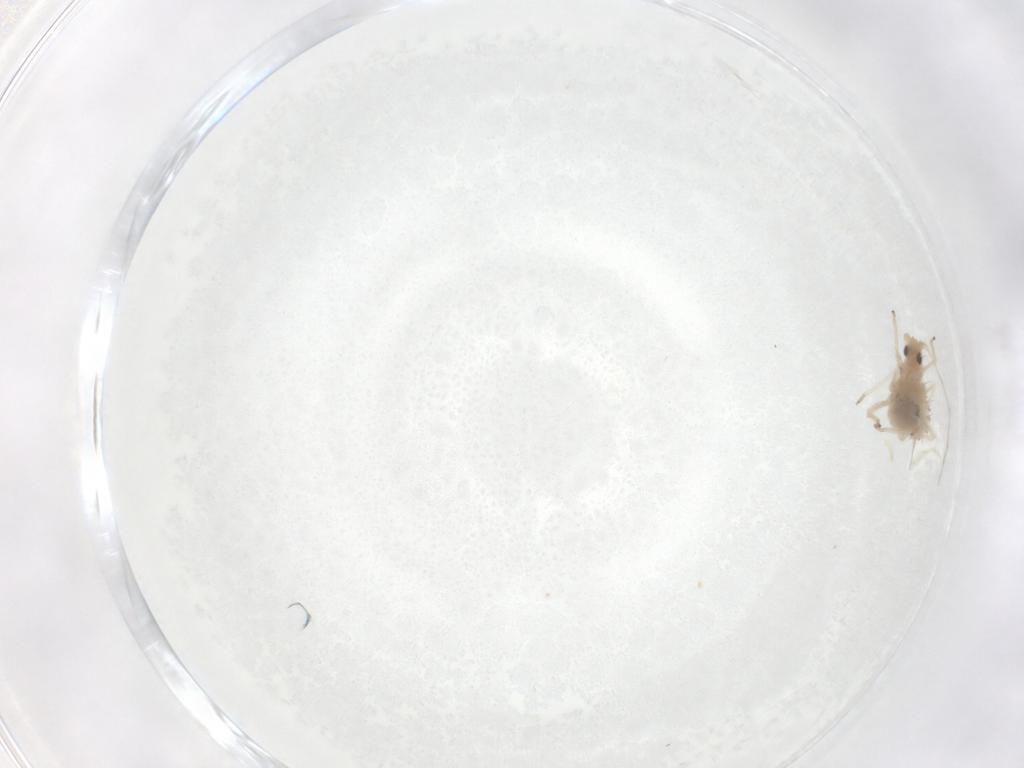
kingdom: Animalia
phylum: Arthropoda
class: Insecta
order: Hemiptera
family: Aphididae
